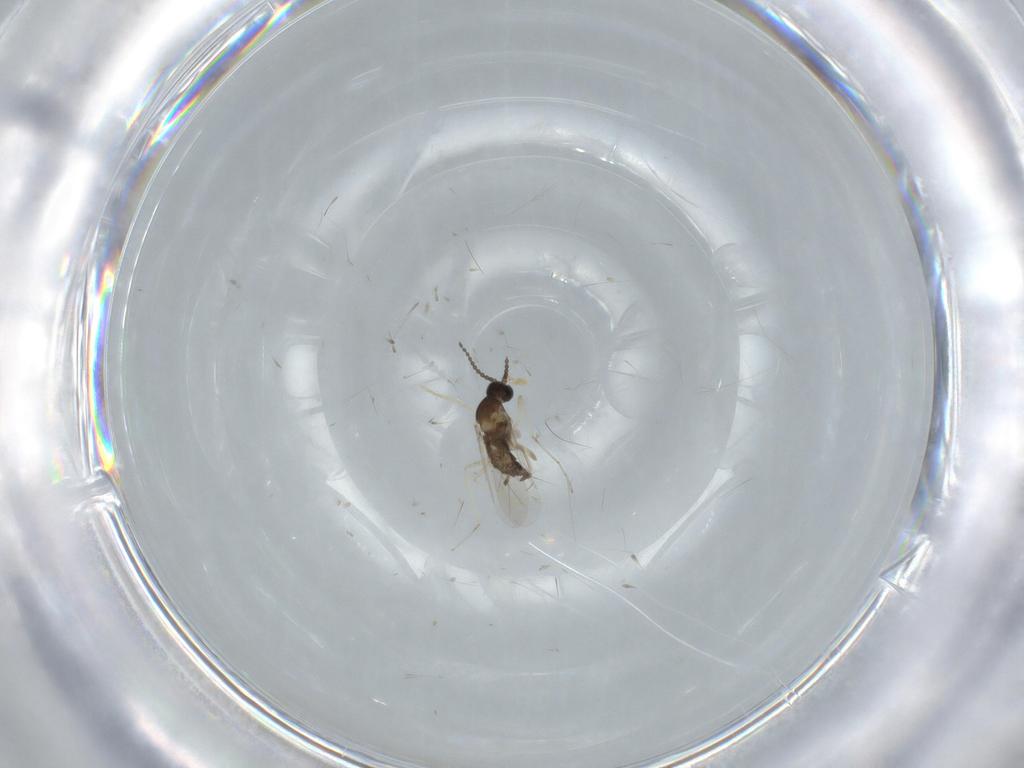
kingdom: Animalia
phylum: Arthropoda
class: Insecta
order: Diptera
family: Cecidomyiidae
